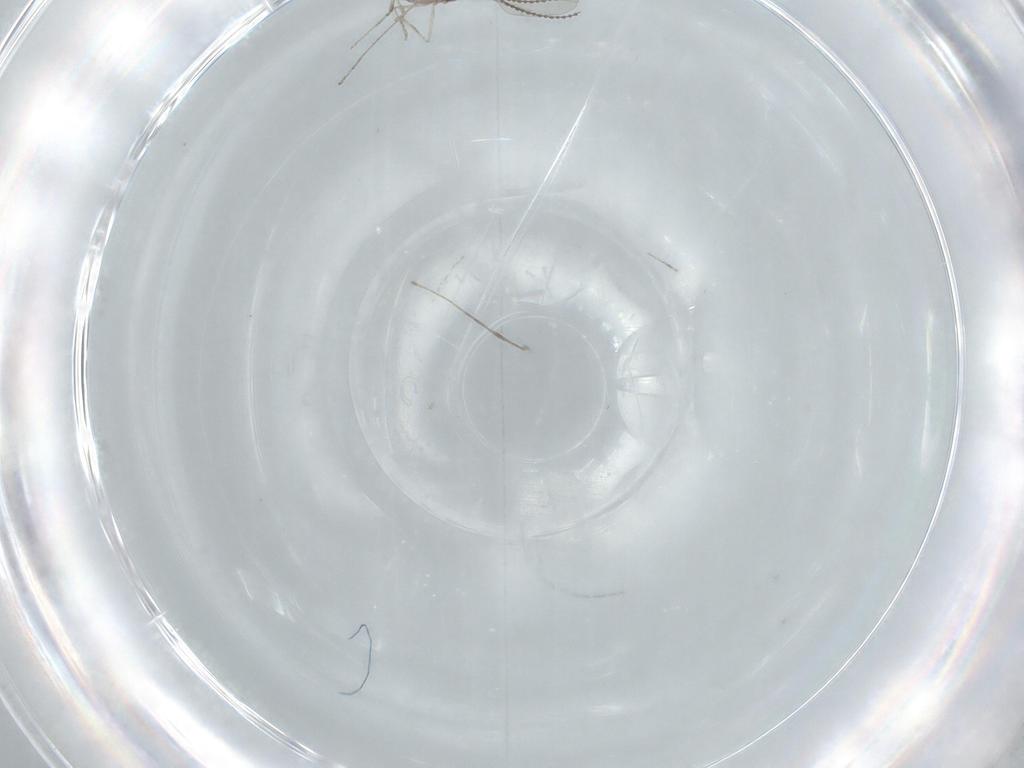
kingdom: Animalia
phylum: Arthropoda
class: Insecta
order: Diptera
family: Cecidomyiidae
